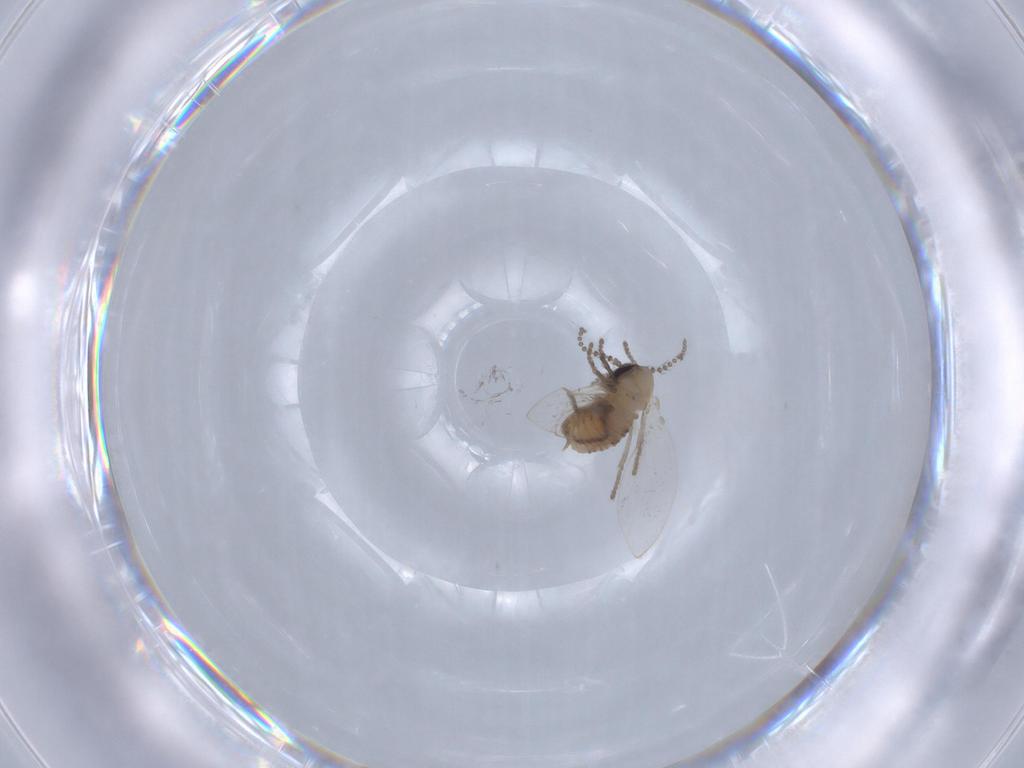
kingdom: Animalia
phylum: Arthropoda
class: Insecta
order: Diptera
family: Psychodidae
